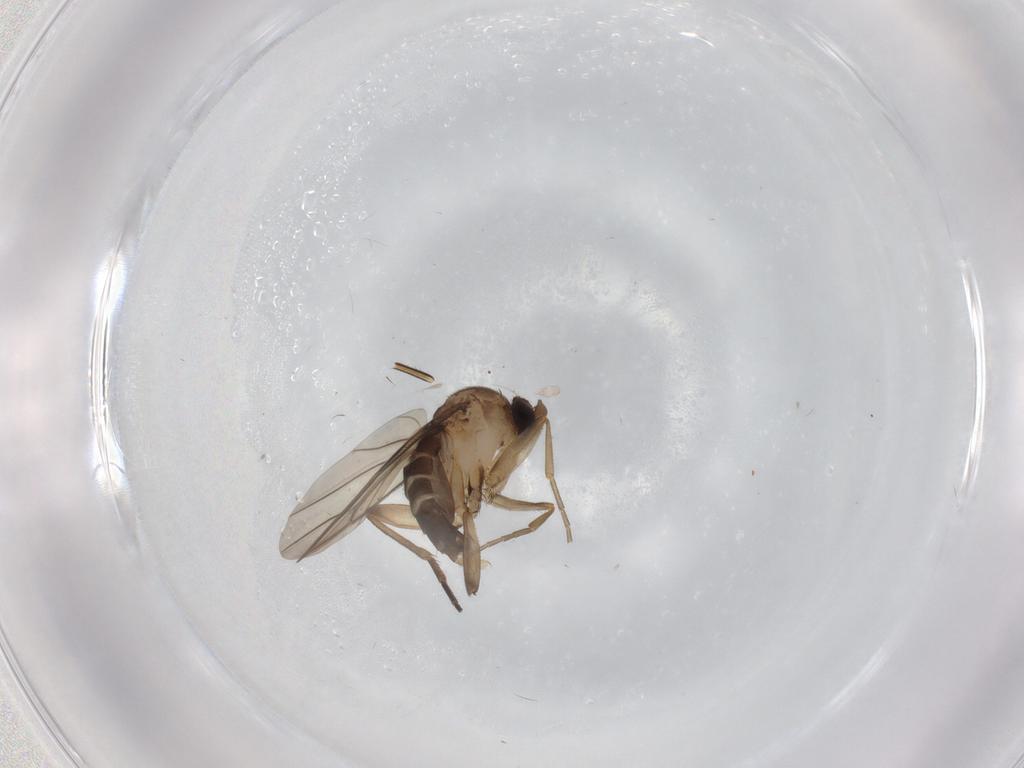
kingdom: Animalia
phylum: Arthropoda
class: Insecta
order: Diptera
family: Phoridae
